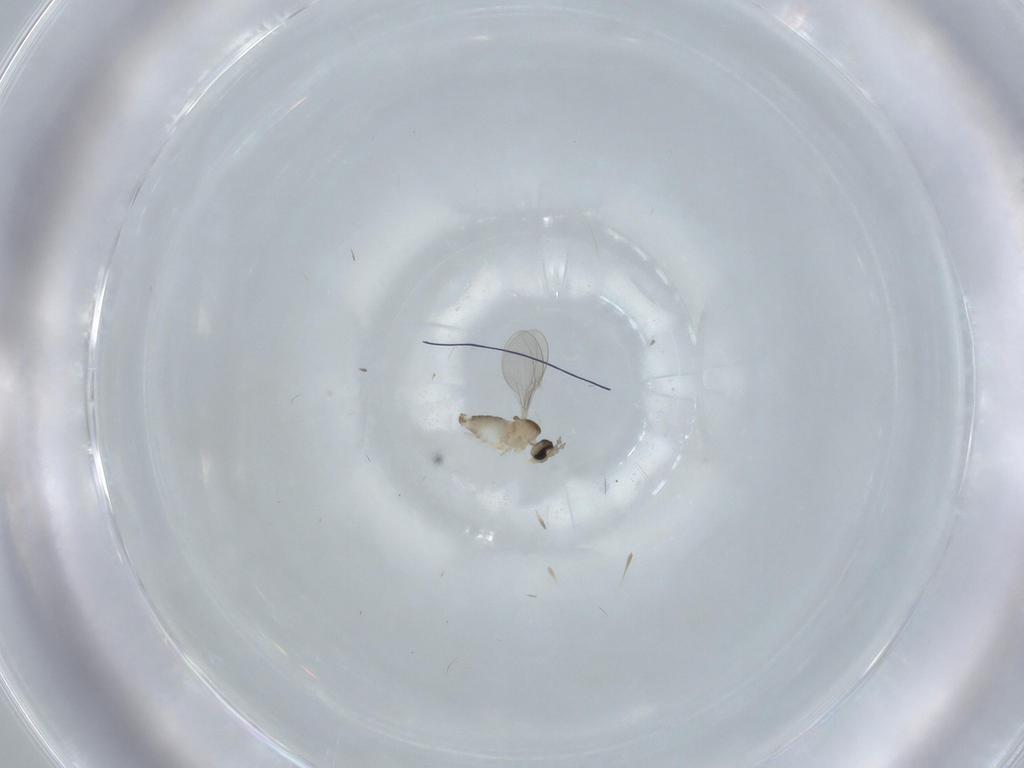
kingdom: Animalia
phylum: Arthropoda
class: Insecta
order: Diptera
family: Cecidomyiidae
